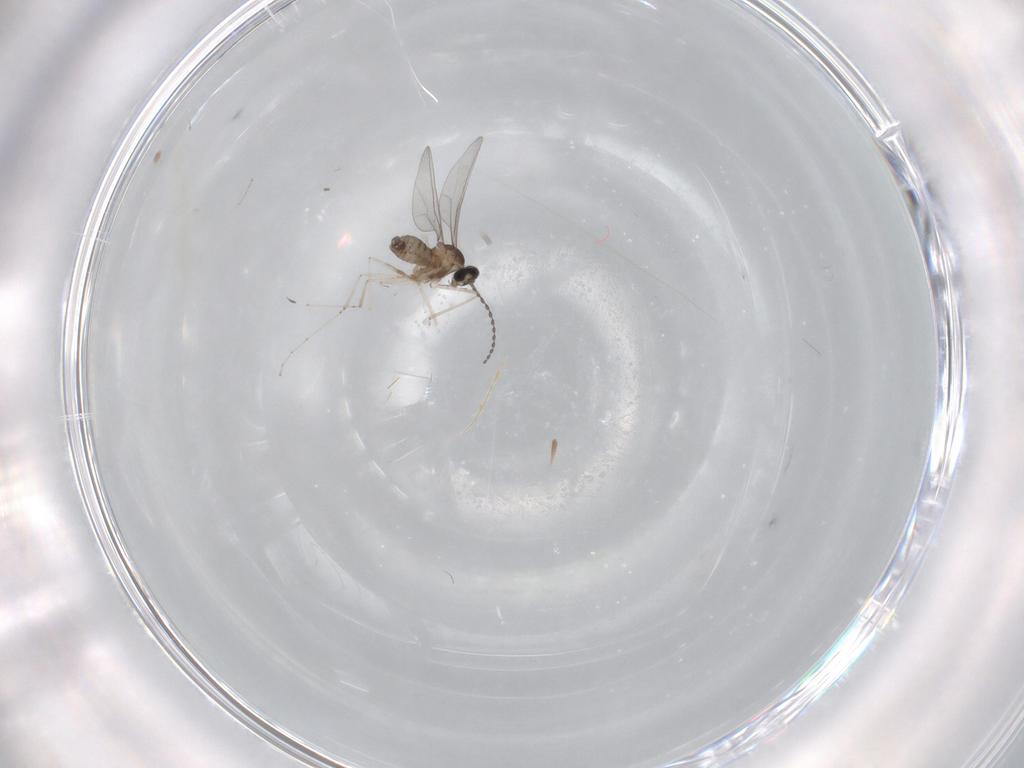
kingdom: Animalia
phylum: Arthropoda
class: Insecta
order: Diptera
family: Cecidomyiidae
